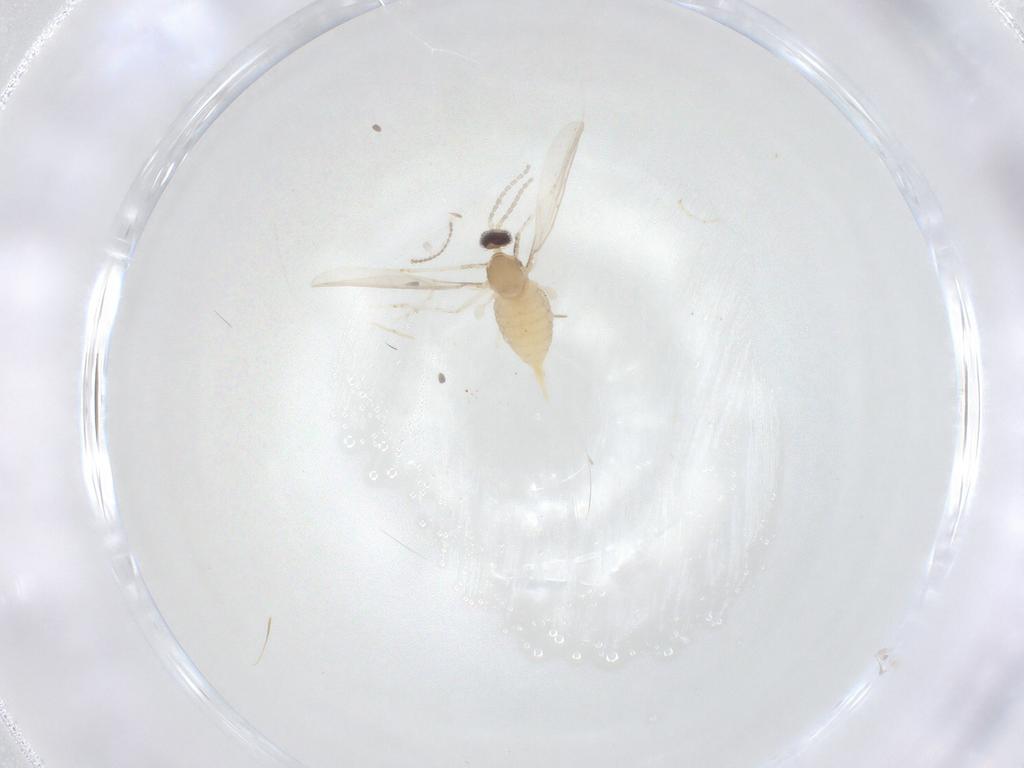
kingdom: Animalia
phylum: Arthropoda
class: Insecta
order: Diptera
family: Cecidomyiidae
